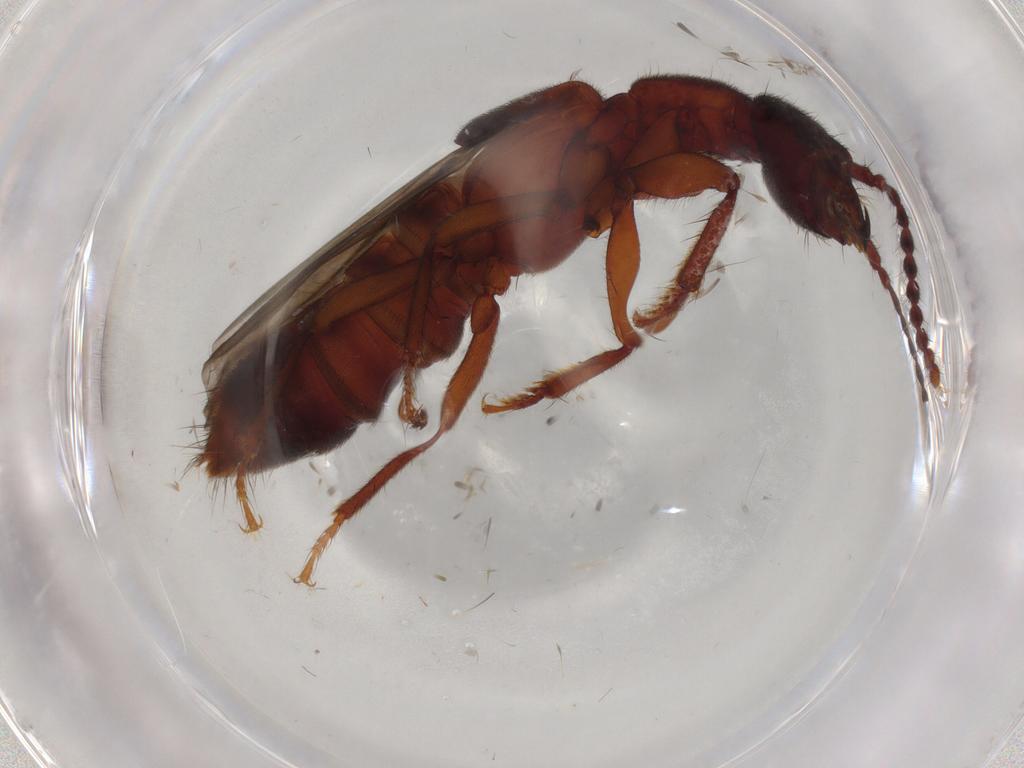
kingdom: Animalia
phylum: Arthropoda
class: Insecta
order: Coleoptera
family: Staphylinidae
